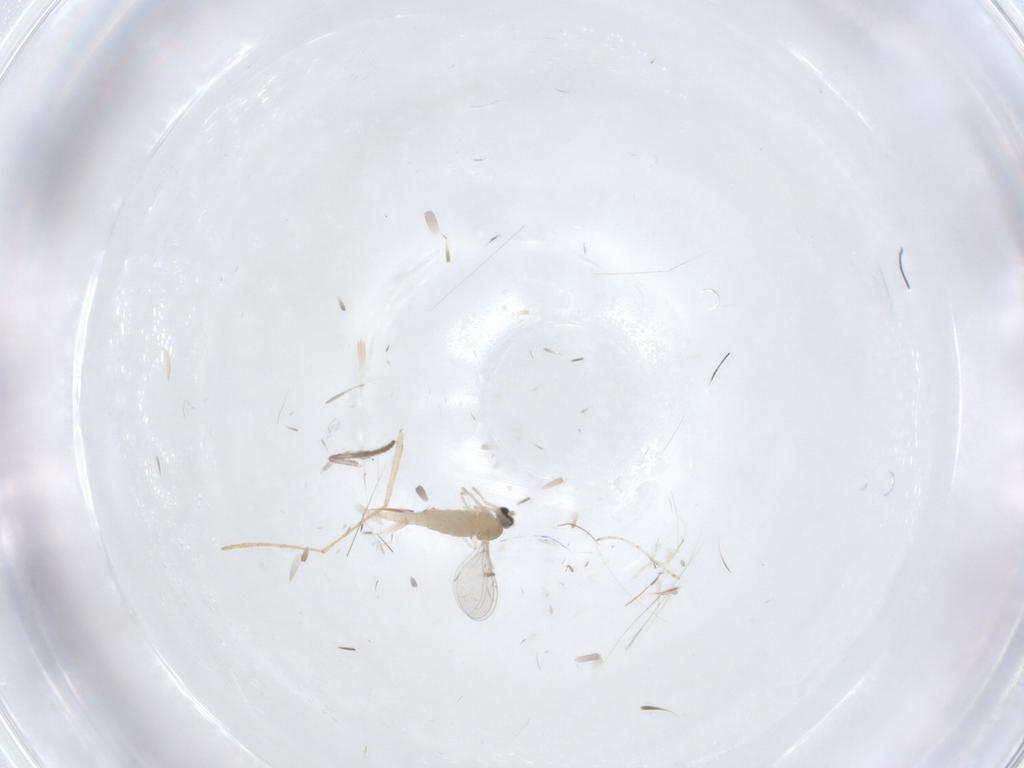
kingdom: Animalia
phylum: Arthropoda
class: Insecta
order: Diptera
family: Cecidomyiidae
